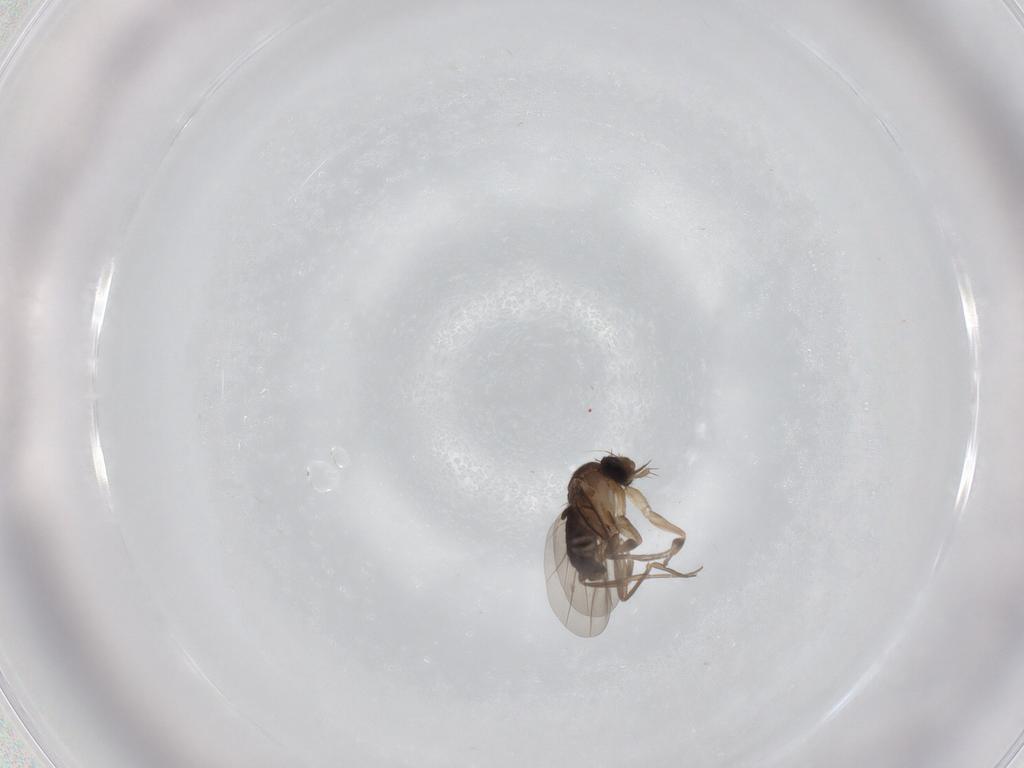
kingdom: Animalia
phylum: Arthropoda
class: Insecta
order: Diptera
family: Phoridae
